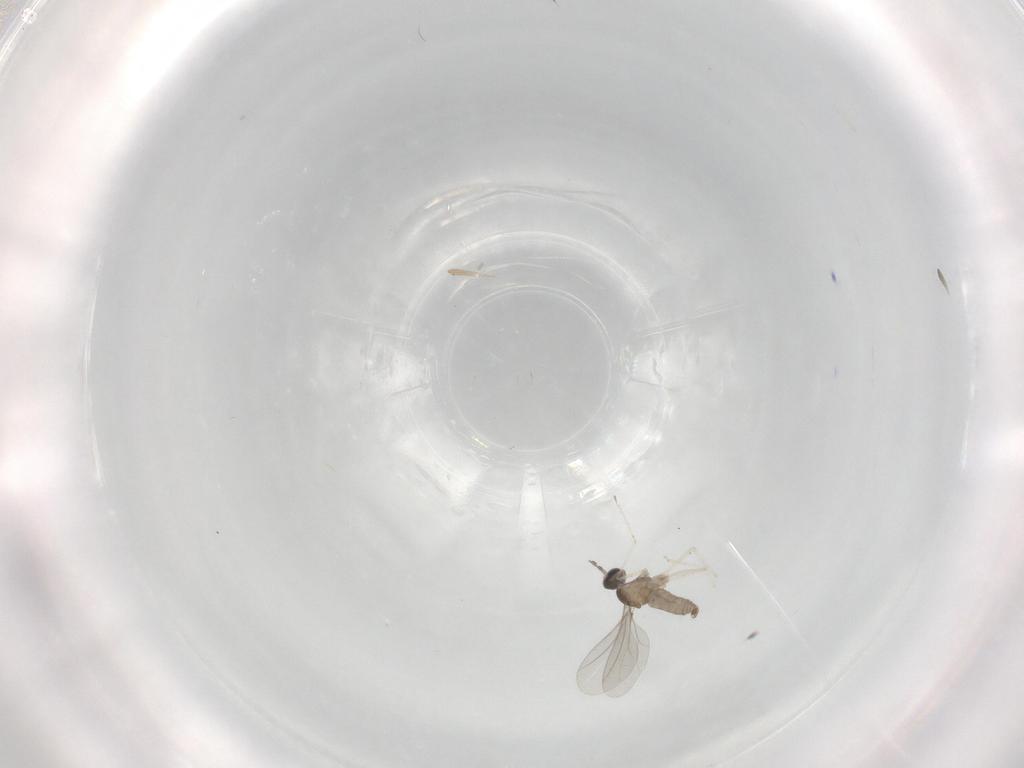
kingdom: Animalia
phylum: Arthropoda
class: Insecta
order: Diptera
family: Cecidomyiidae
